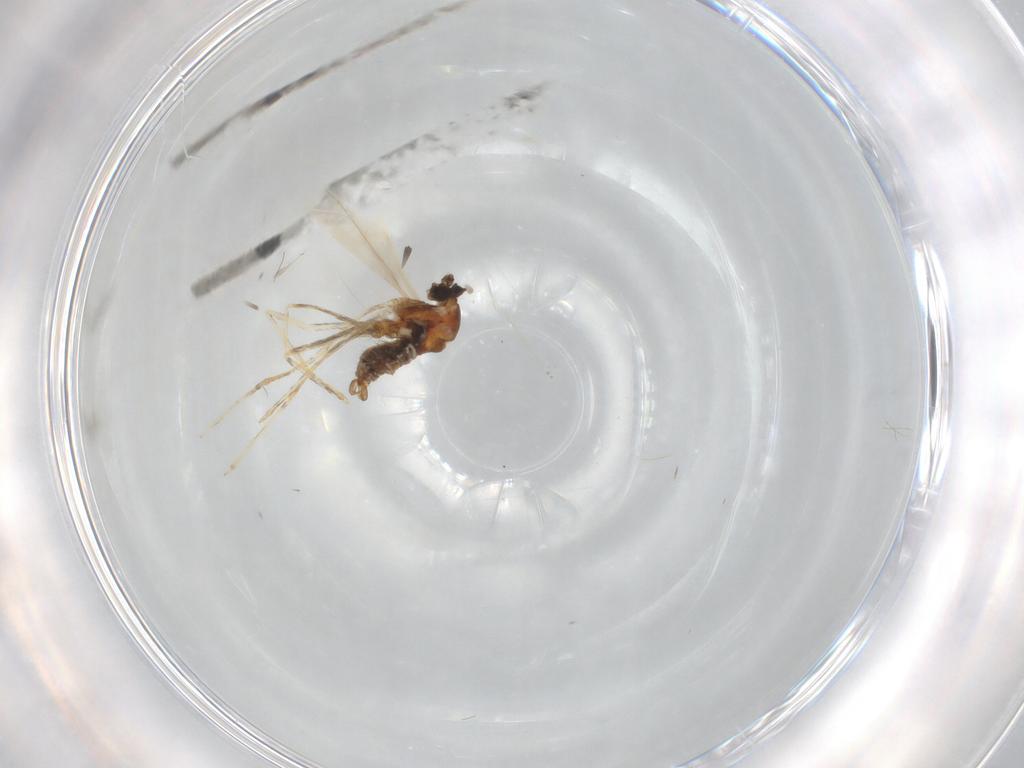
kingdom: Animalia
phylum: Arthropoda
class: Insecta
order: Diptera
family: Cecidomyiidae
